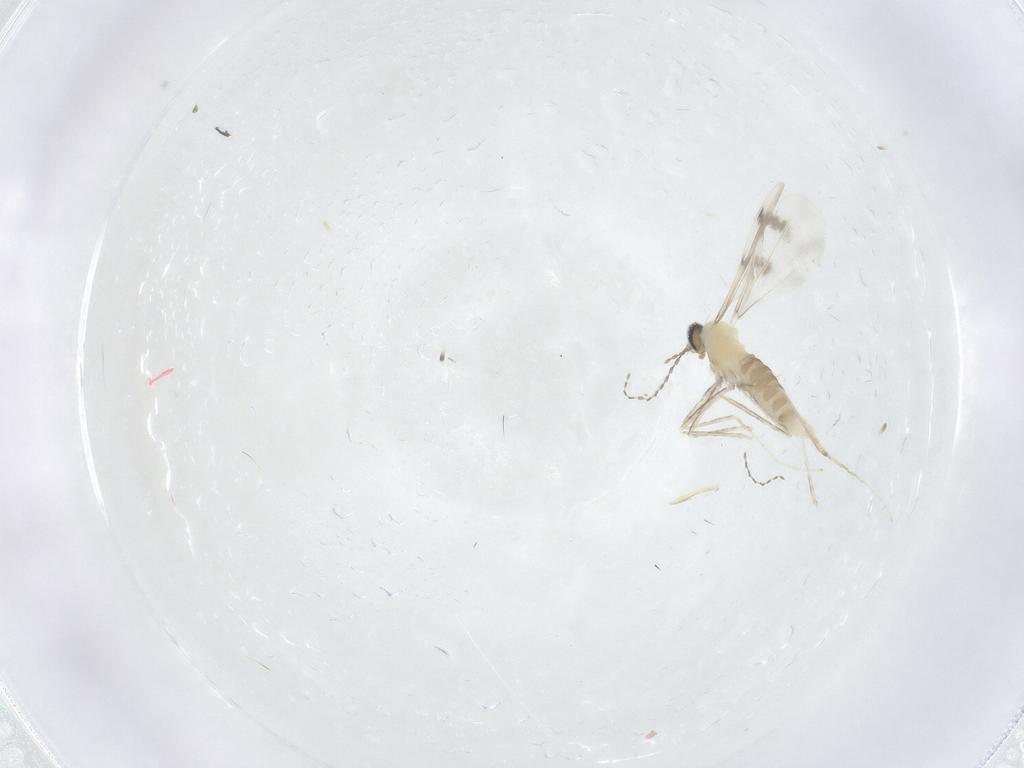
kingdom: Animalia
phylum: Arthropoda
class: Insecta
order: Diptera
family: Keroplatidae
